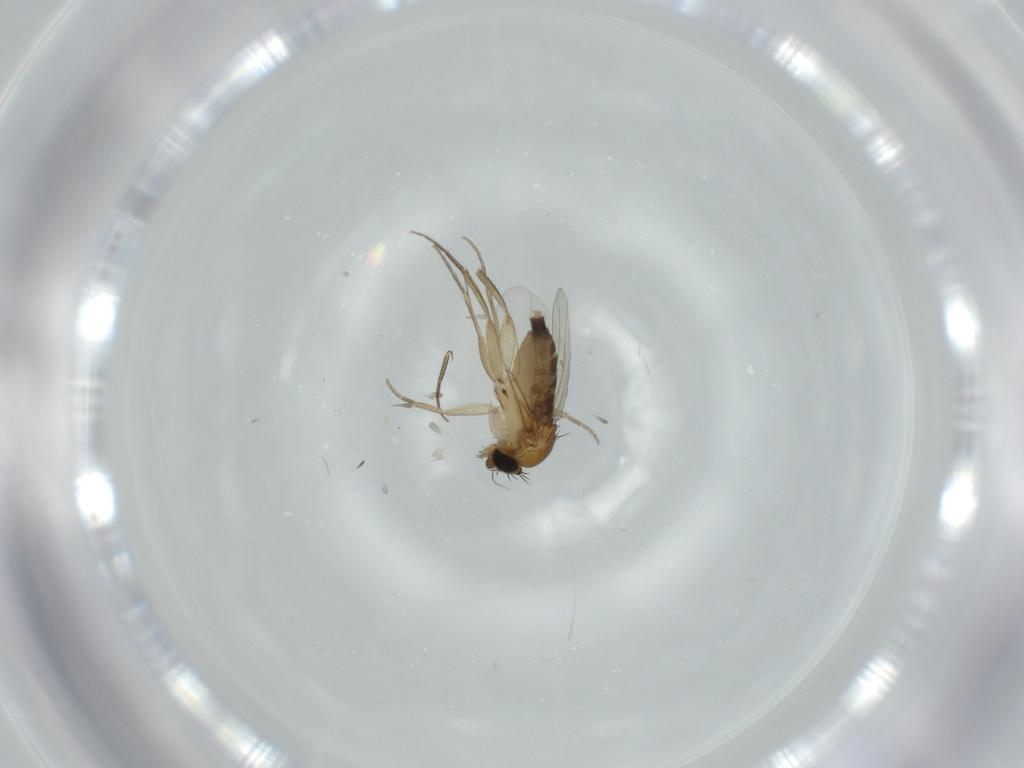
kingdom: Animalia
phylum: Arthropoda
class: Insecta
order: Diptera
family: Phoridae
